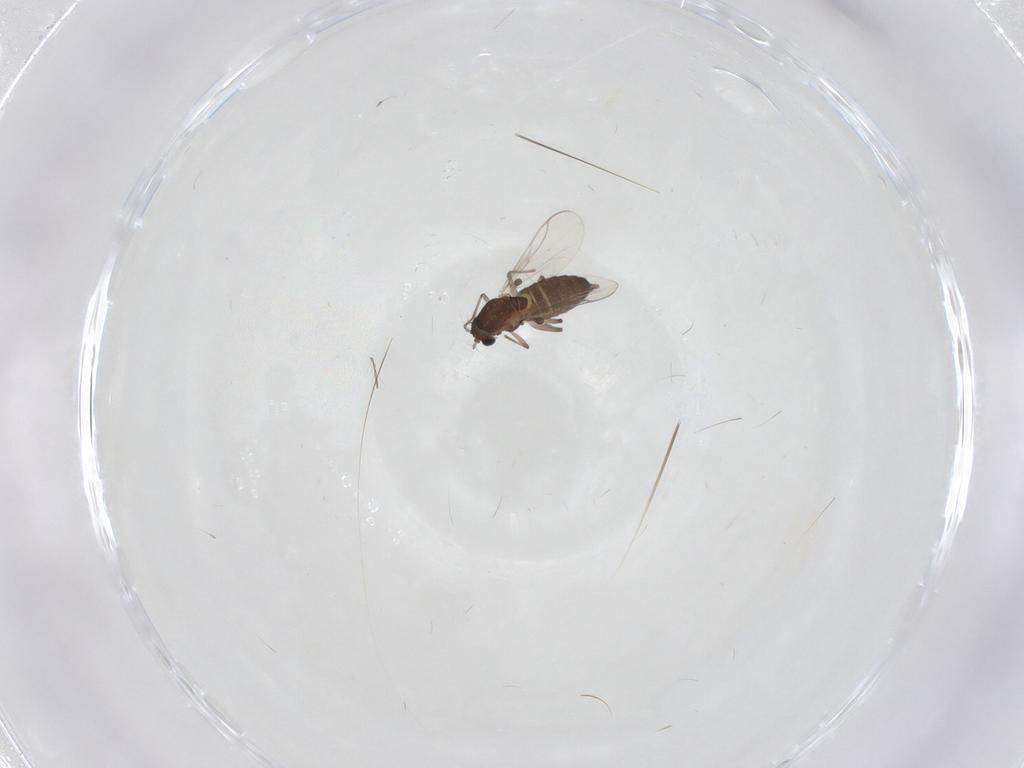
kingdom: Animalia
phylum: Arthropoda
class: Insecta
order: Diptera
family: Chironomidae
